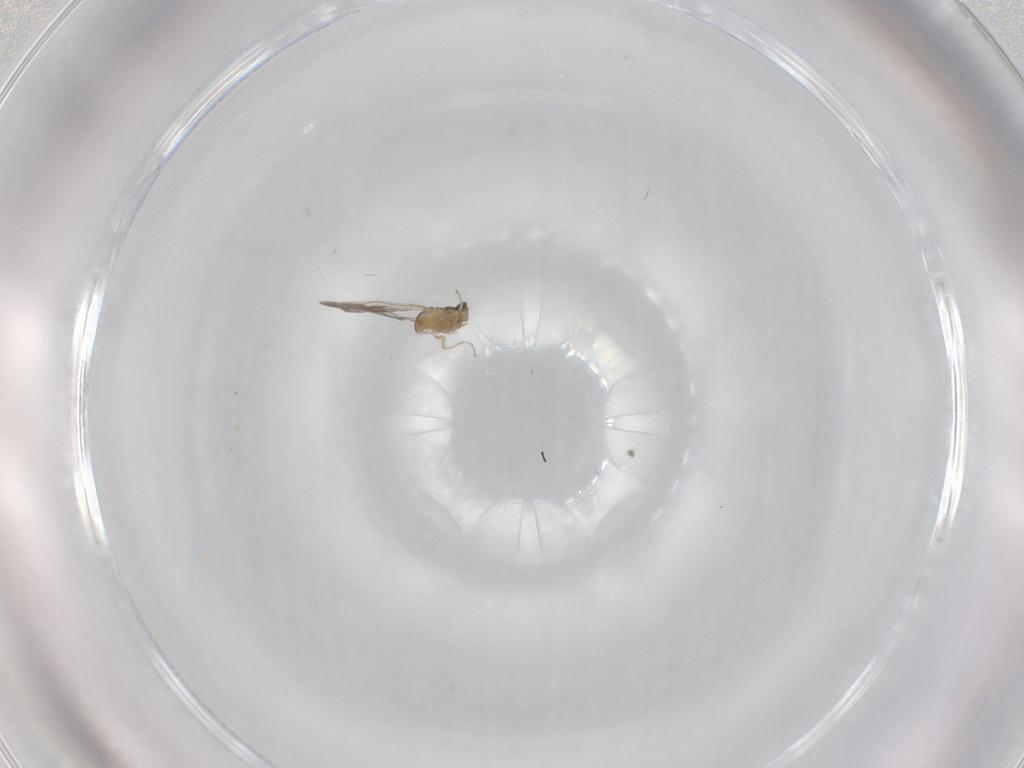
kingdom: Animalia
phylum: Arthropoda
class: Insecta
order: Diptera
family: Cecidomyiidae
